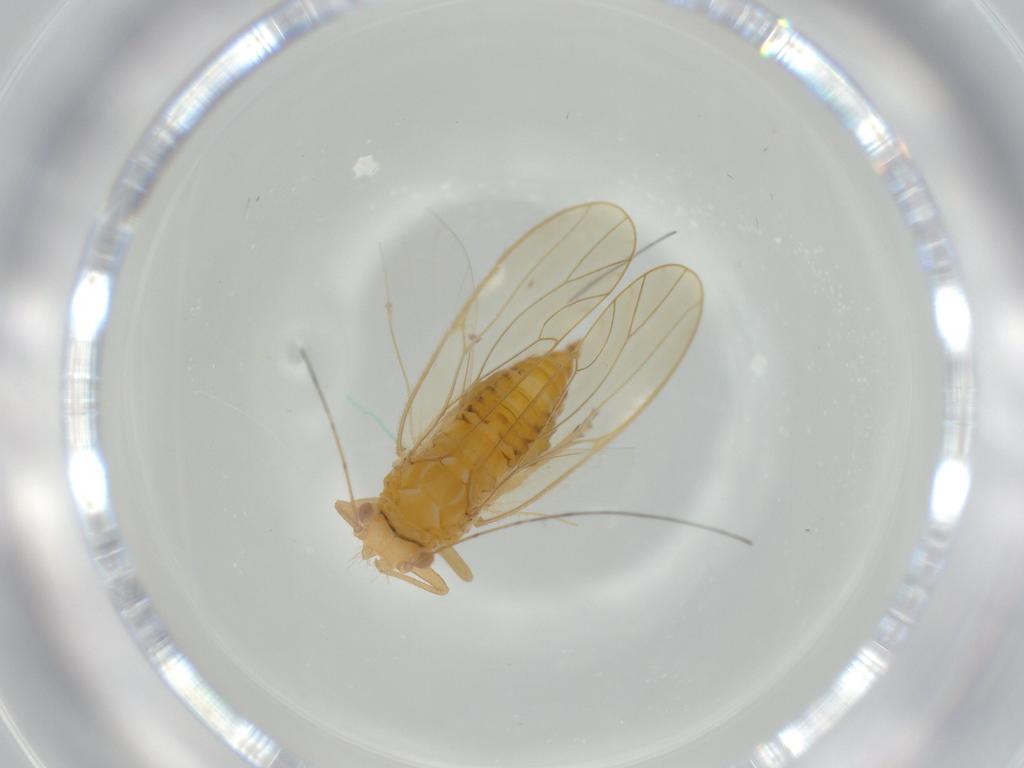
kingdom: Animalia
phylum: Arthropoda
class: Insecta
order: Hemiptera
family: Psyllidae
